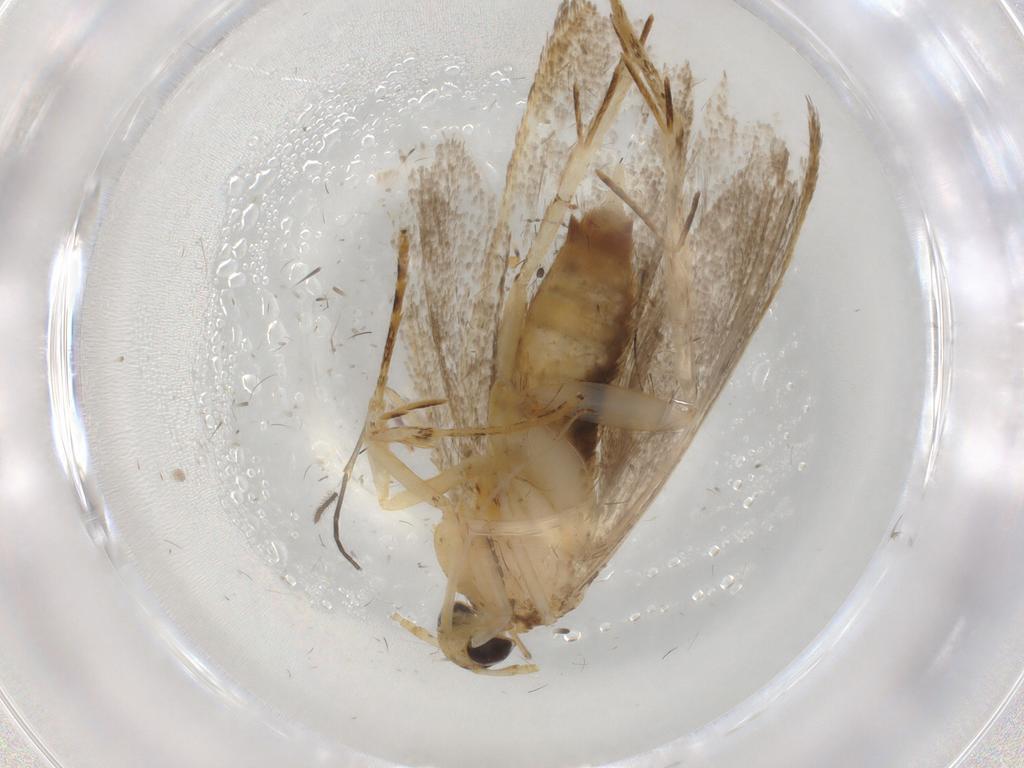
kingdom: Animalia
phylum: Arthropoda
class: Insecta
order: Lepidoptera
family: Lecithoceridae
